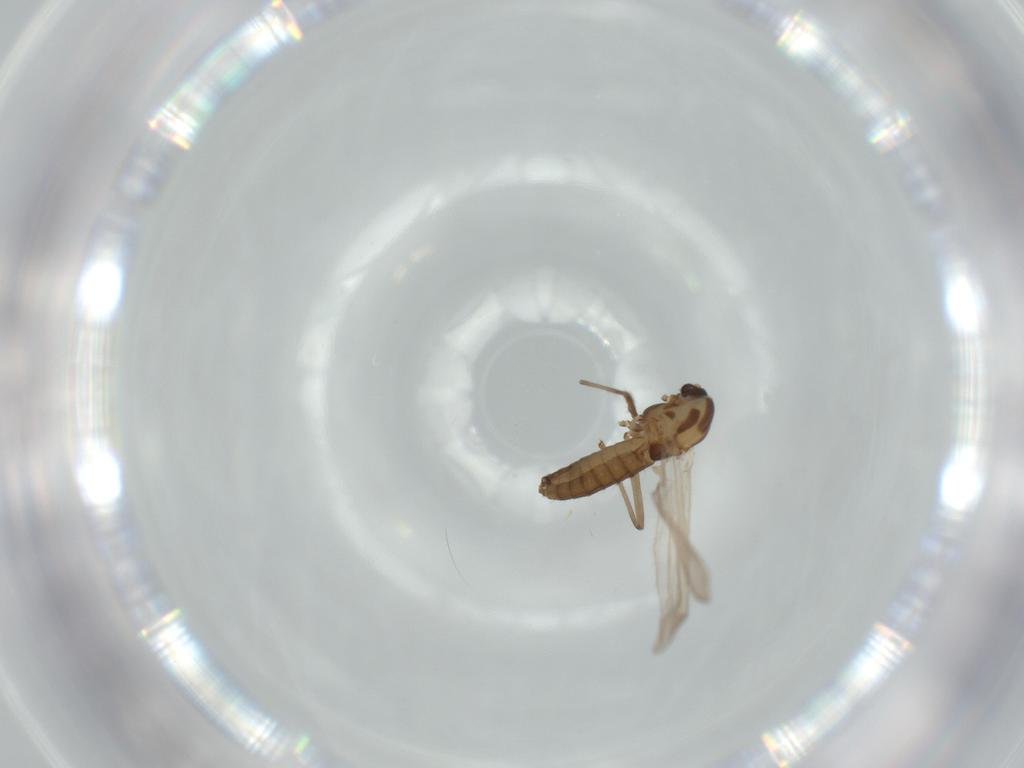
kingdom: Animalia
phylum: Arthropoda
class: Insecta
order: Diptera
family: Chironomidae
